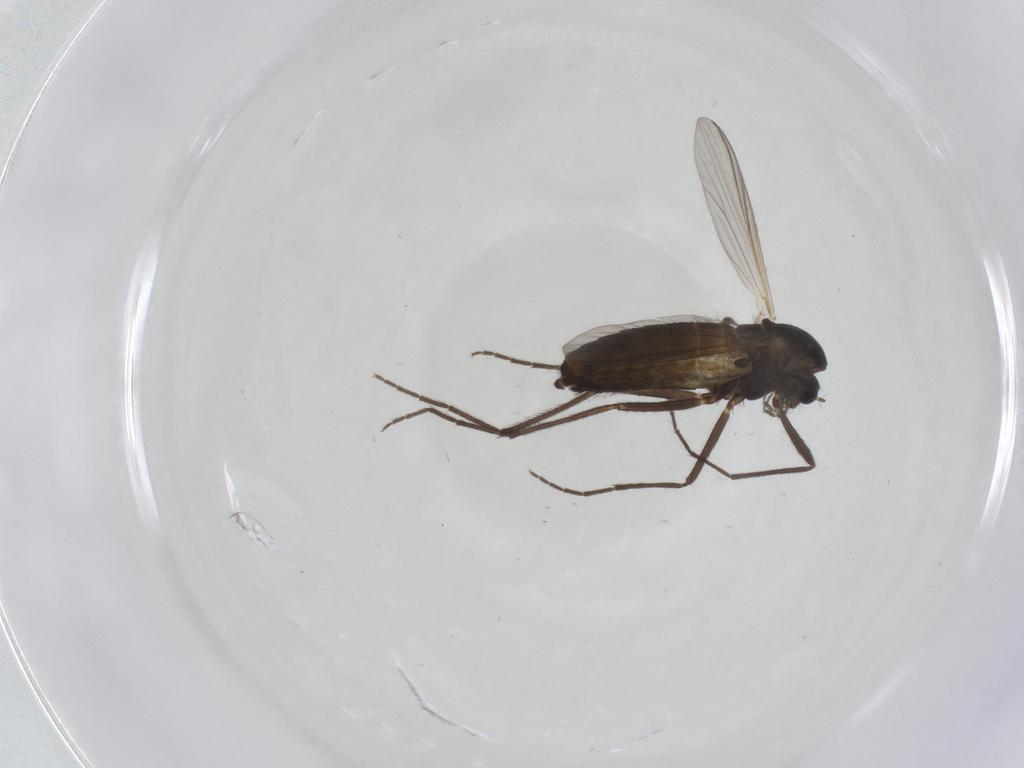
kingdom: Animalia
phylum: Arthropoda
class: Insecta
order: Diptera
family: Chironomidae
